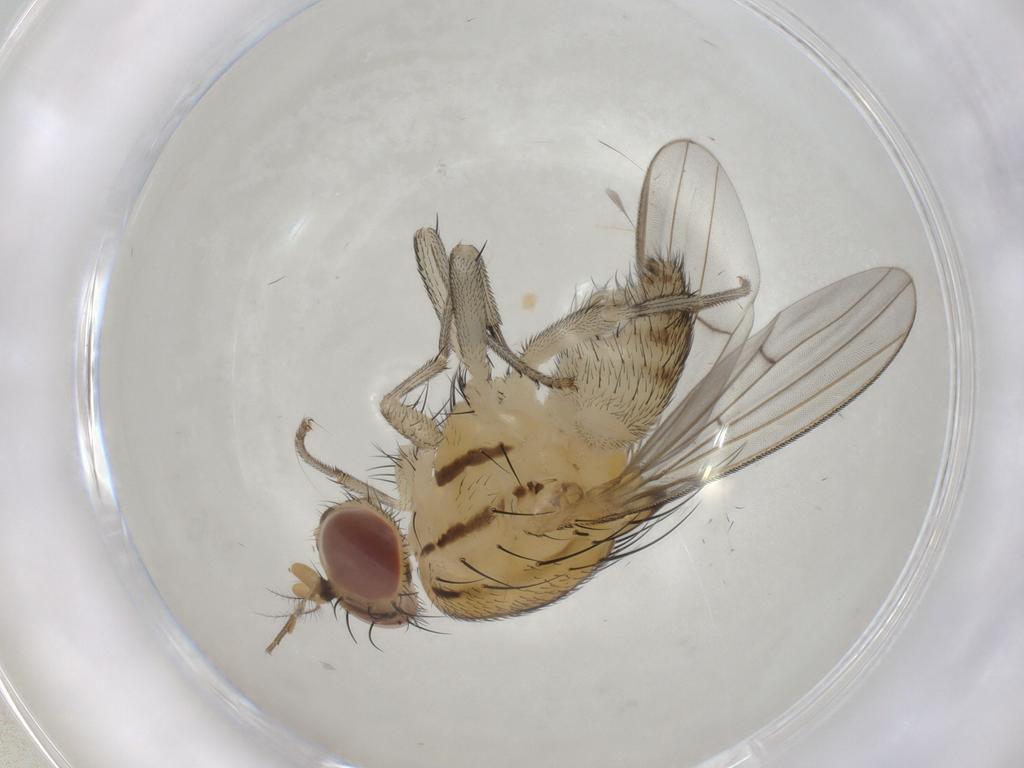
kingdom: Animalia
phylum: Arthropoda
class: Insecta
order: Diptera
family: Lauxaniidae
